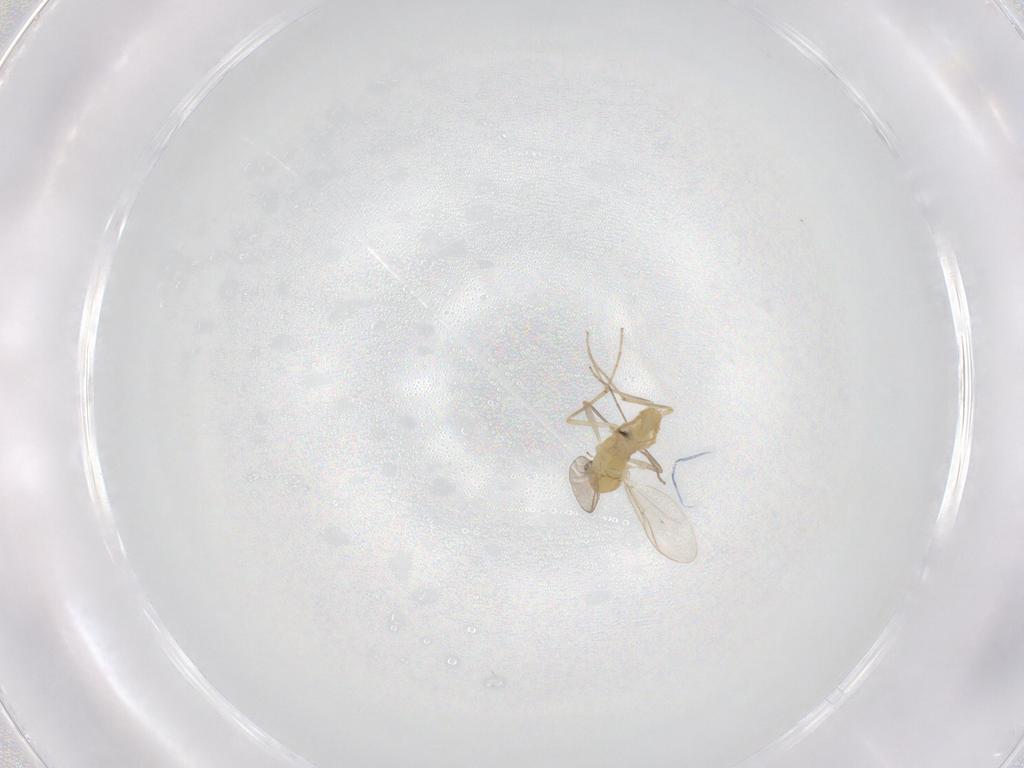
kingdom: Animalia
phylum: Arthropoda
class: Insecta
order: Diptera
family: Chironomidae
